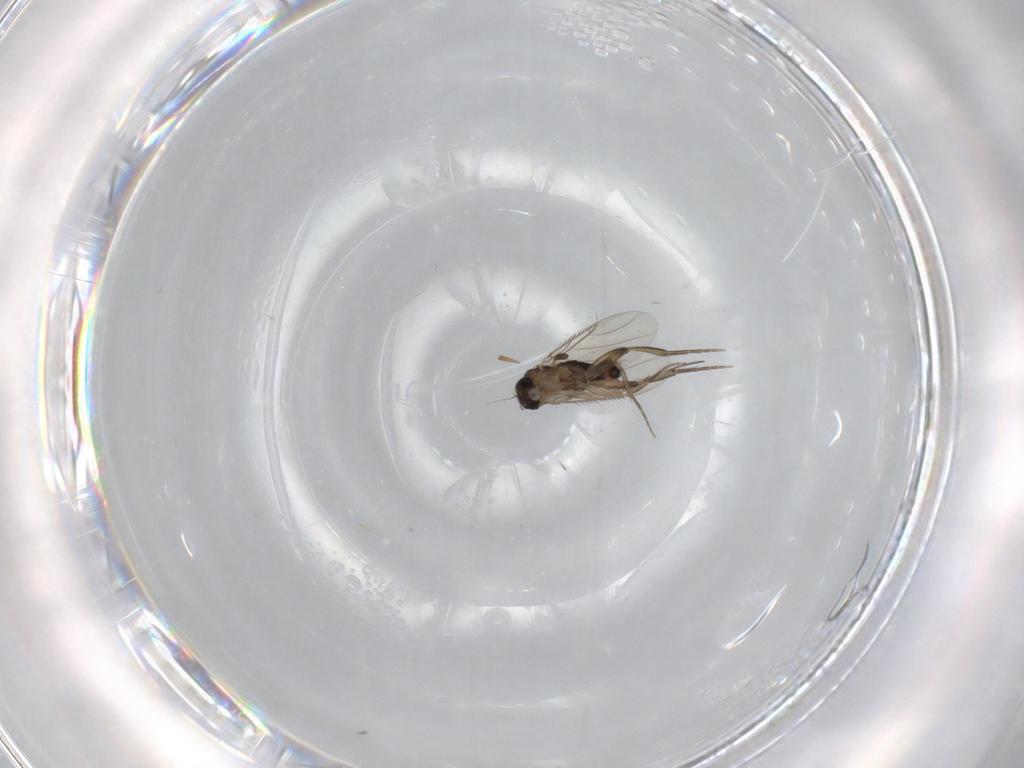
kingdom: Animalia
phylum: Arthropoda
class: Insecta
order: Diptera
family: Phoridae
